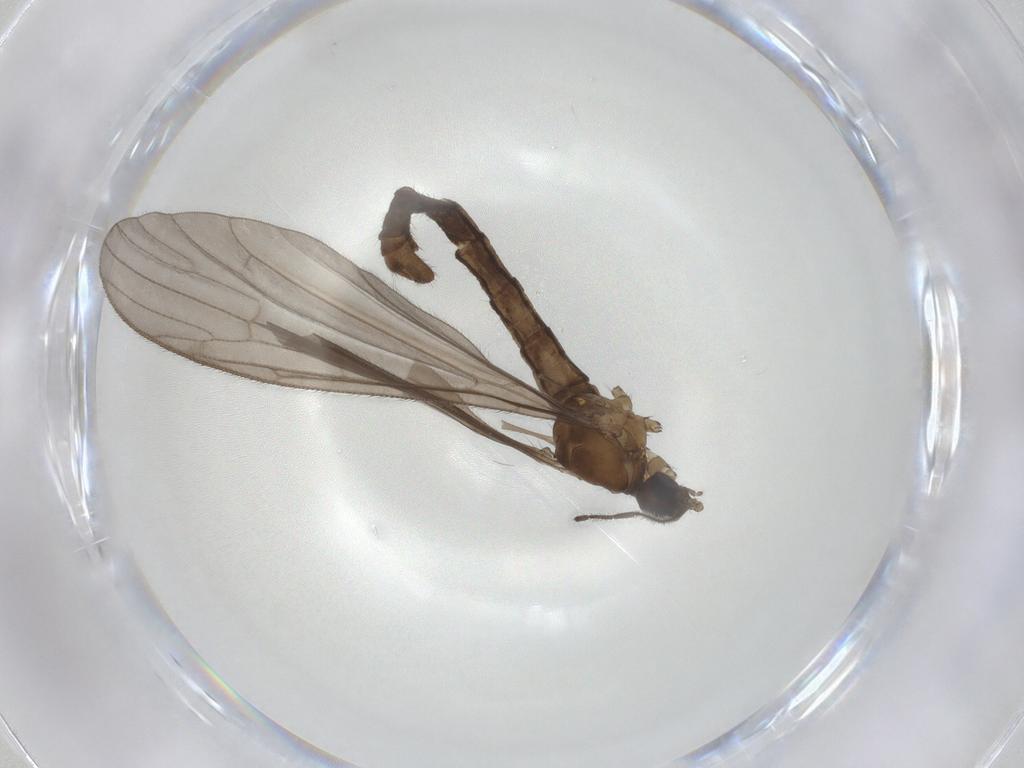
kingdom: Animalia
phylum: Arthropoda
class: Insecta
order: Diptera
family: Limoniidae
